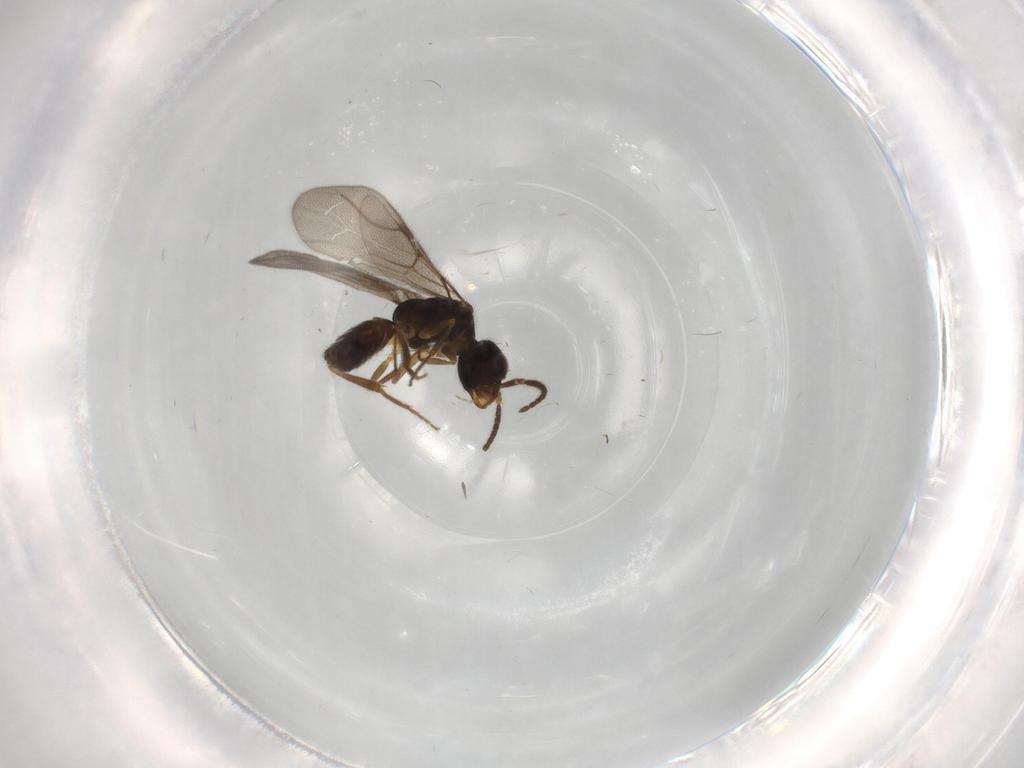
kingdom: Animalia
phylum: Arthropoda
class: Insecta
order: Hymenoptera
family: Bethylidae
